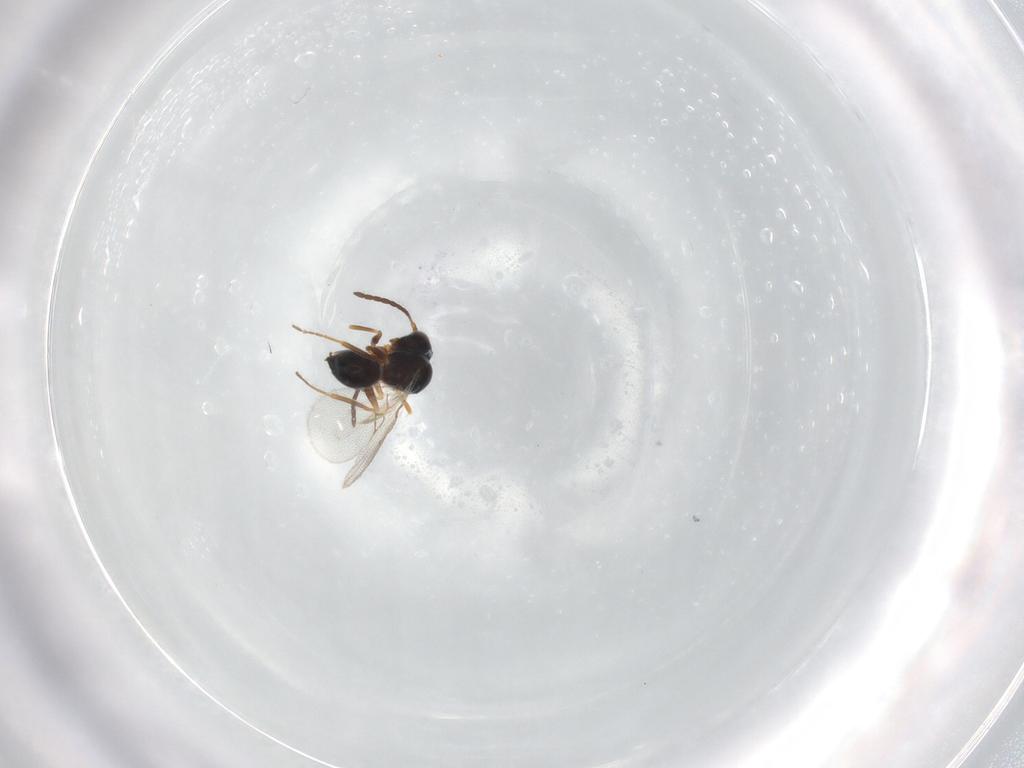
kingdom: Animalia
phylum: Arthropoda
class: Insecta
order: Hymenoptera
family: Figitidae
